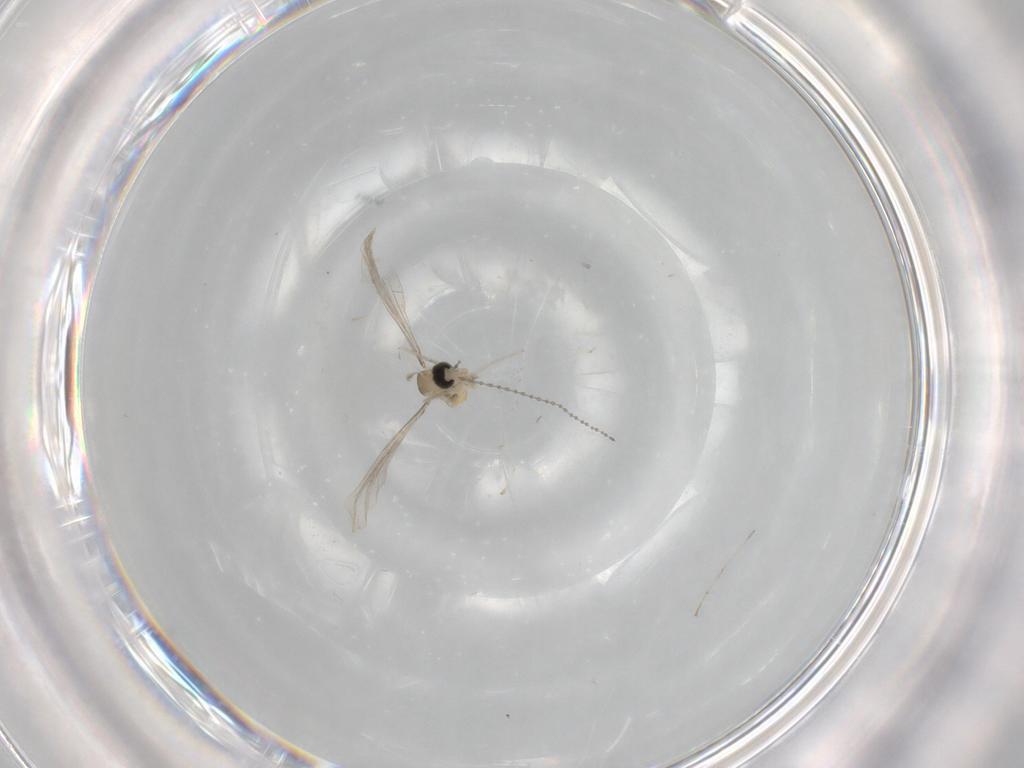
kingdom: Animalia
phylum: Arthropoda
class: Insecta
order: Diptera
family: Cecidomyiidae
